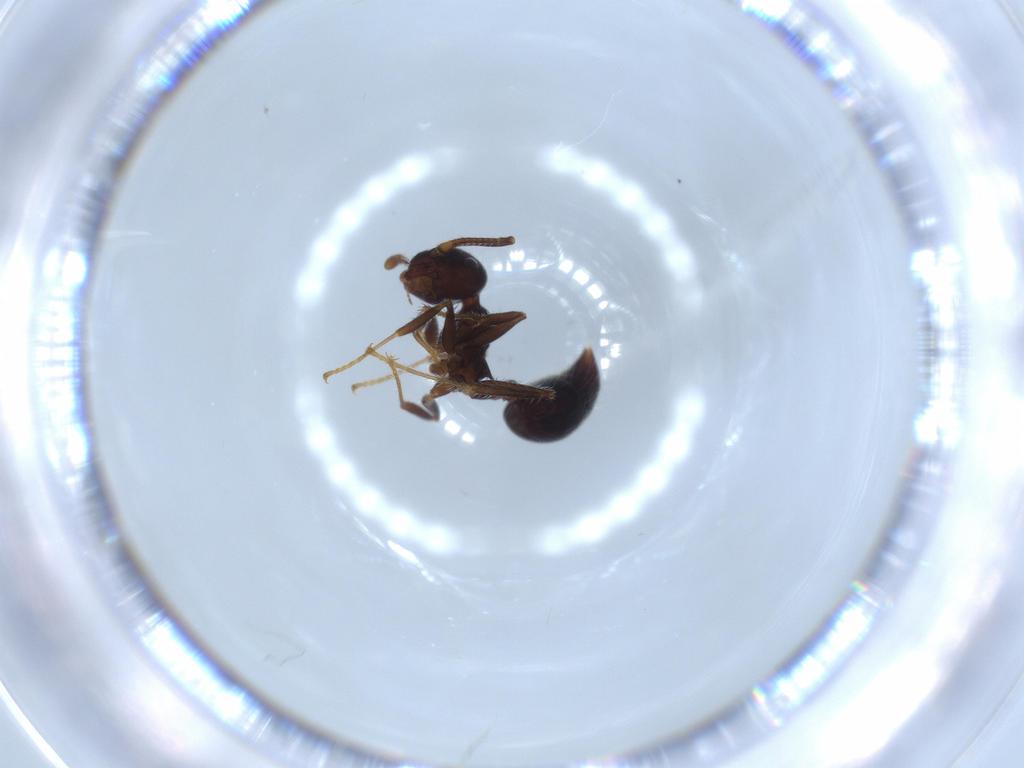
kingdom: Animalia
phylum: Arthropoda
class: Insecta
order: Hymenoptera
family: Formicidae
